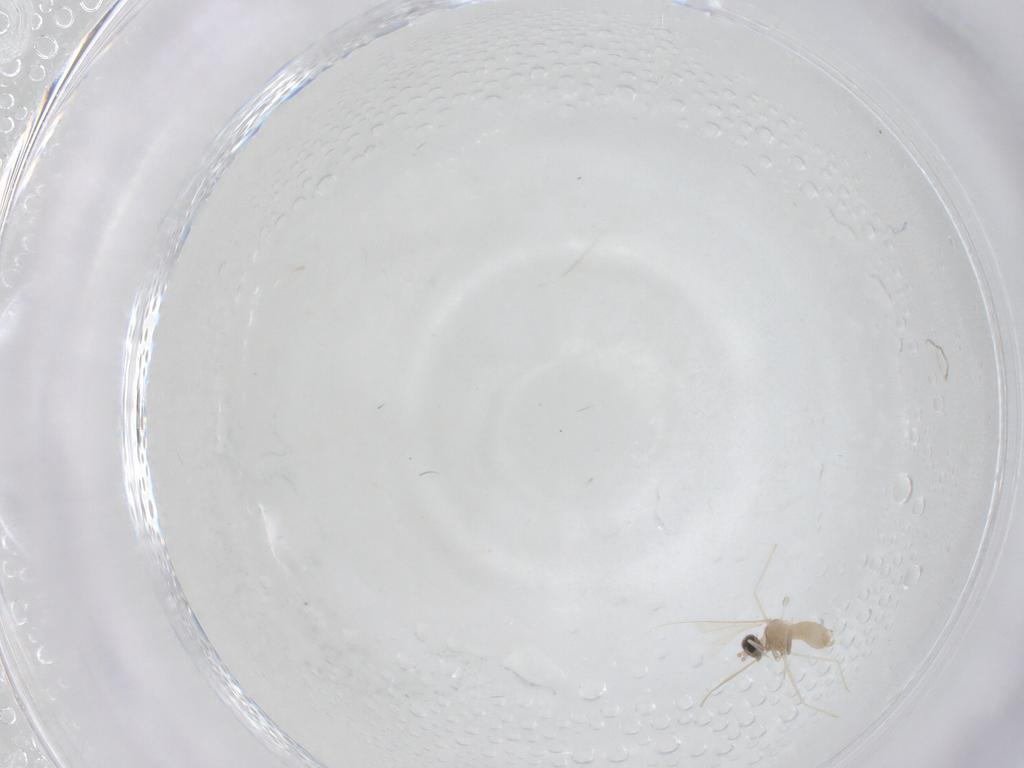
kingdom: Animalia
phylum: Arthropoda
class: Insecta
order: Diptera
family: Cecidomyiidae
